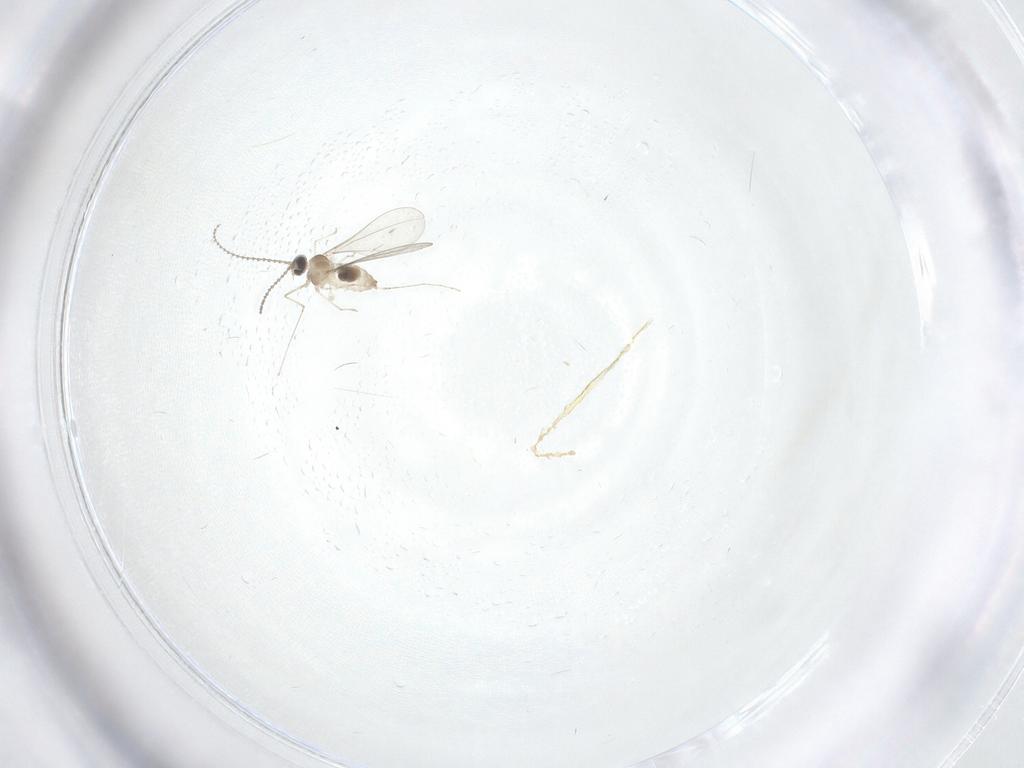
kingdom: Animalia
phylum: Arthropoda
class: Insecta
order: Diptera
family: Cecidomyiidae
